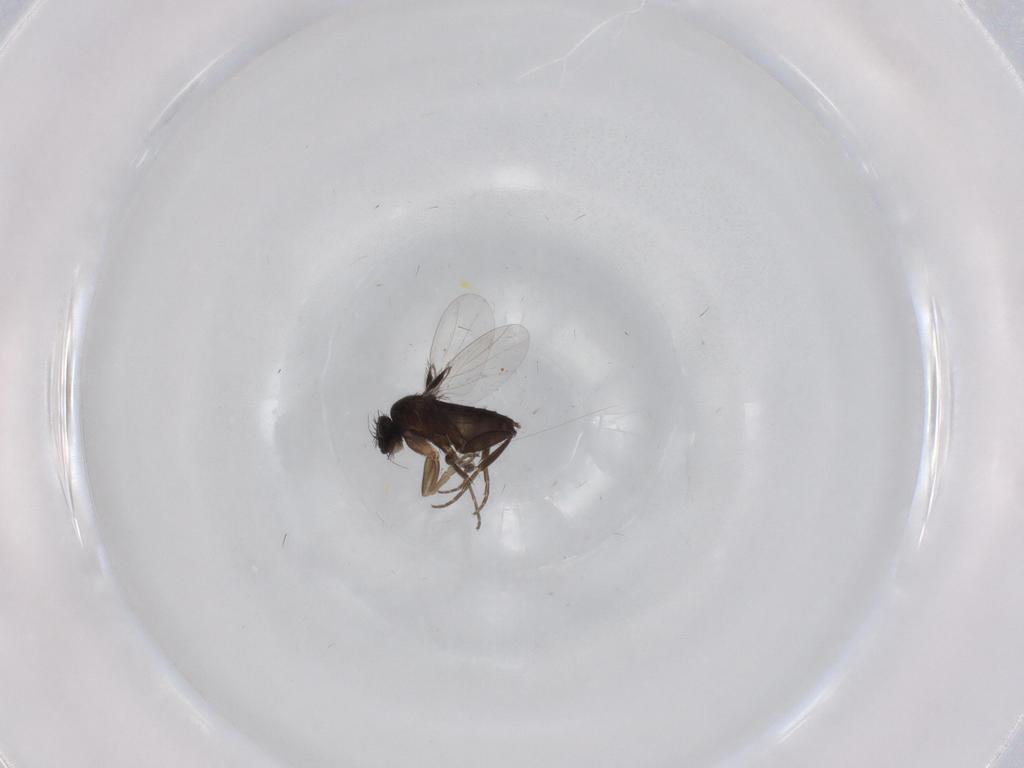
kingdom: Animalia
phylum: Arthropoda
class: Insecta
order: Diptera
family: Phoridae
